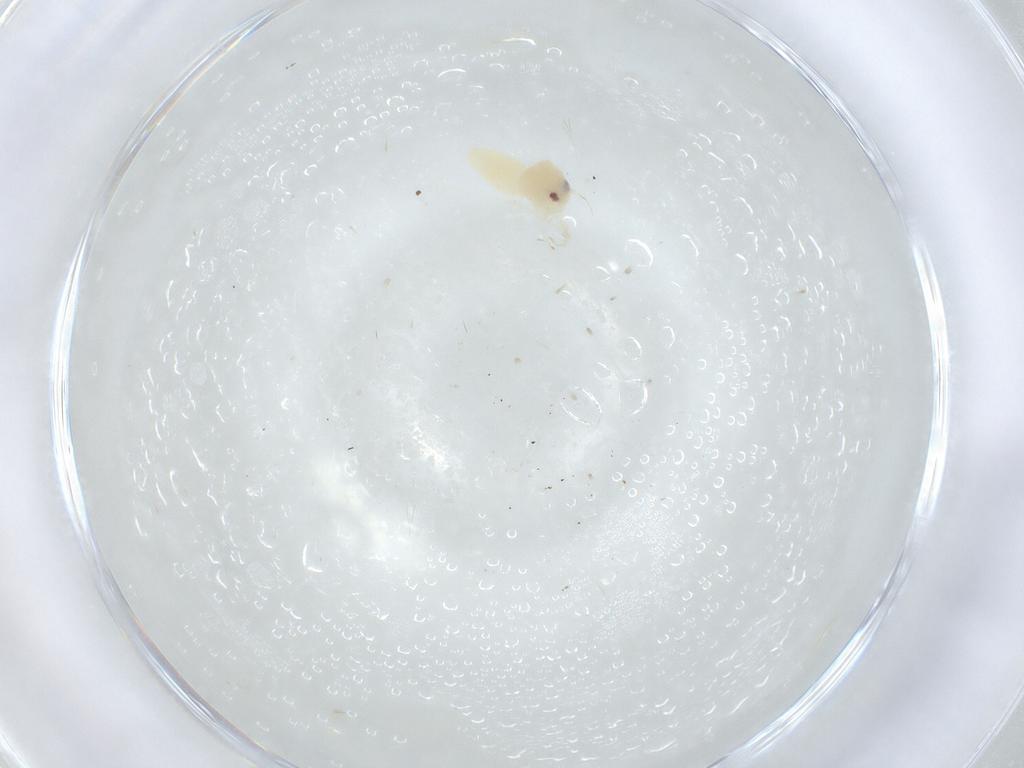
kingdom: Animalia
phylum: Arthropoda
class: Insecta
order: Hemiptera
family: Aleyrodidae
